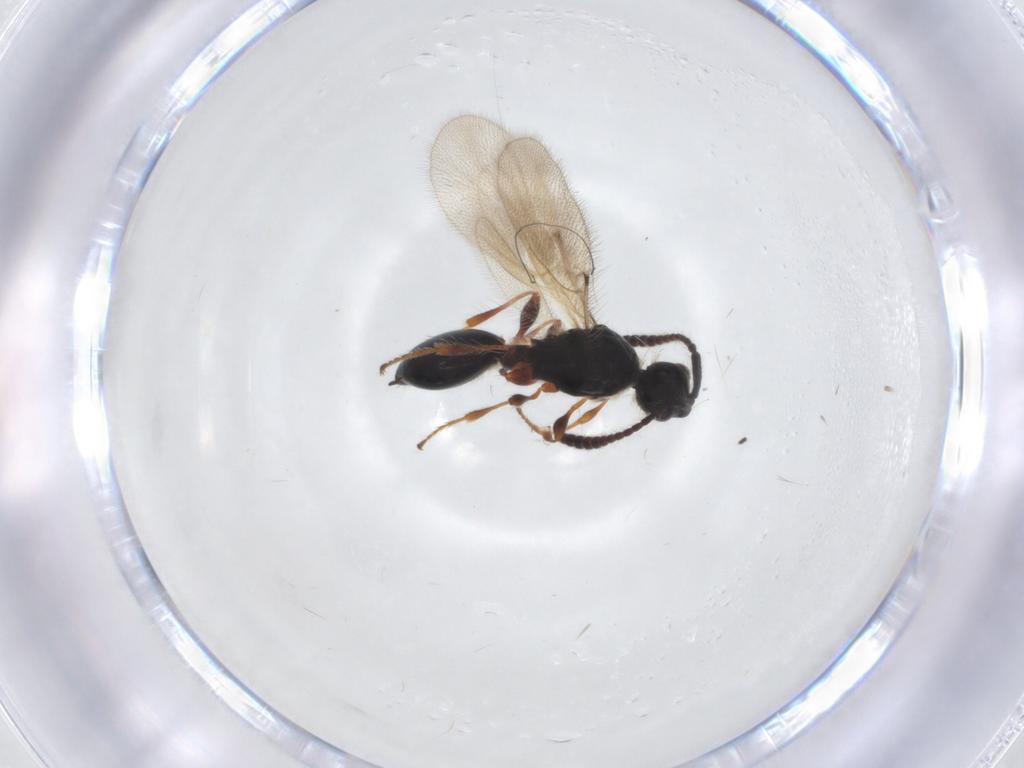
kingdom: Animalia
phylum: Arthropoda
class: Insecta
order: Hymenoptera
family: Diapriidae
